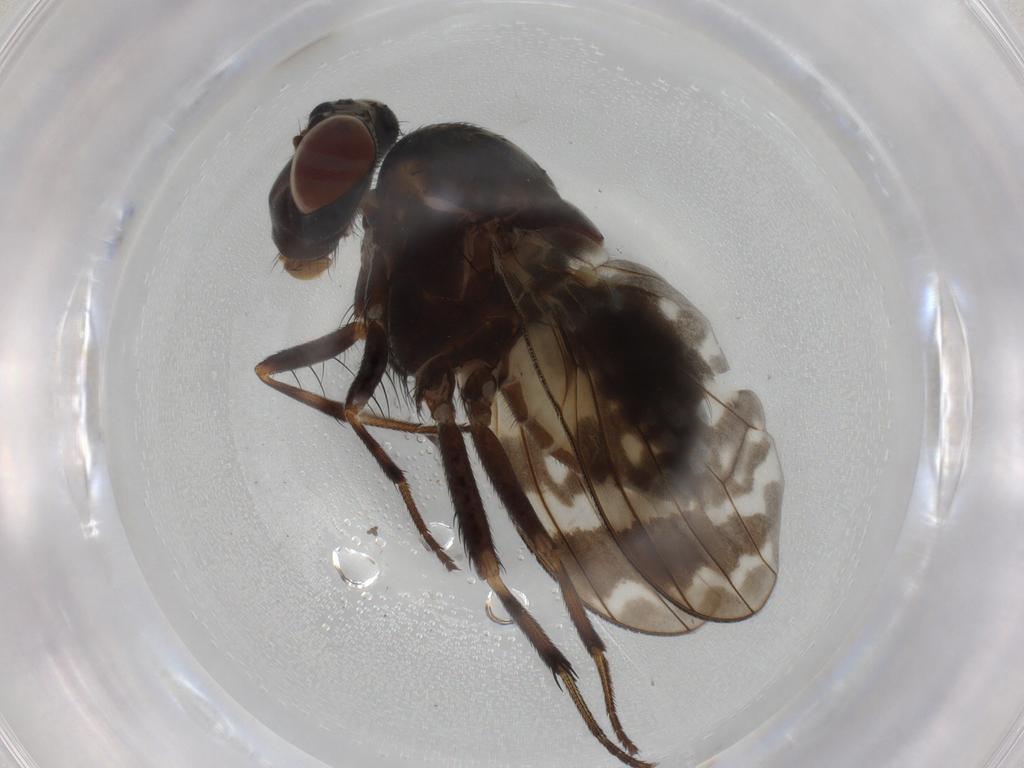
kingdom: Animalia
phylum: Arthropoda
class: Insecta
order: Diptera
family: Lauxaniidae
